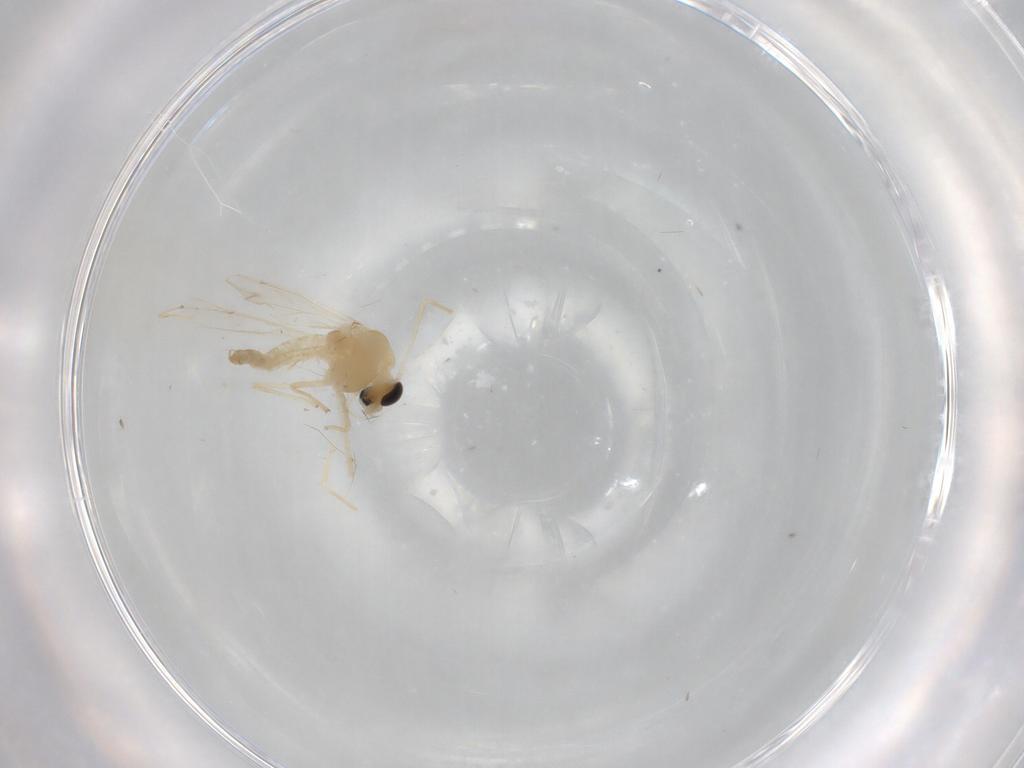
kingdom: Animalia
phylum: Arthropoda
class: Insecta
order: Diptera
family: Chironomidae
